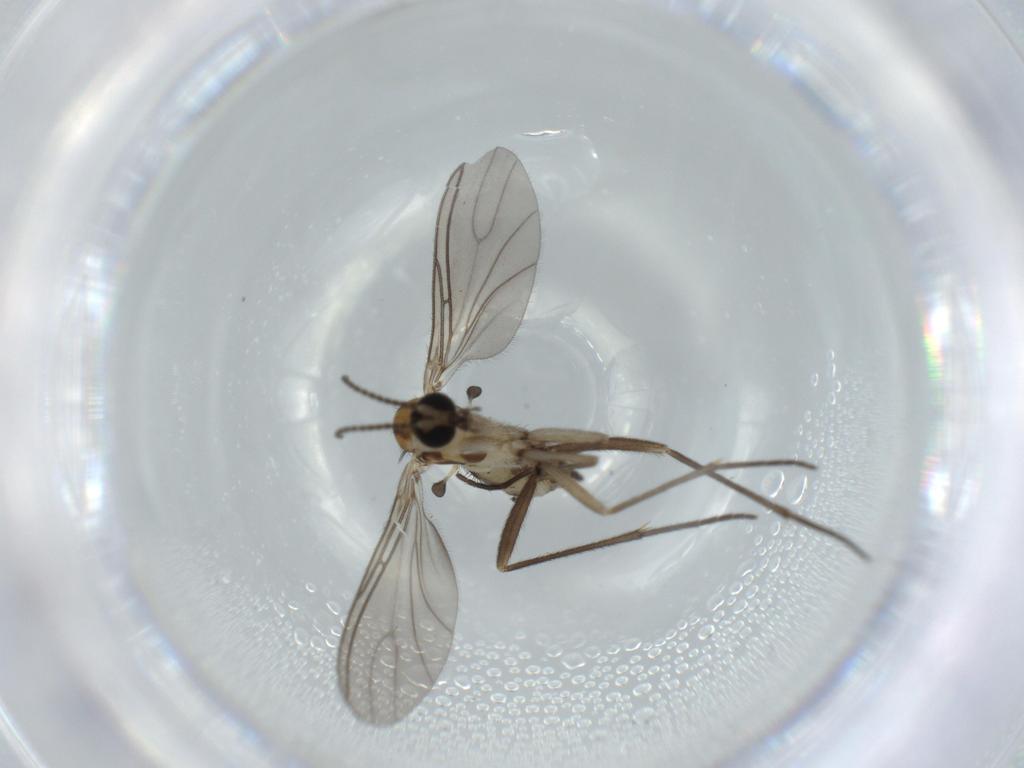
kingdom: Animalia
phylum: Arthropoda
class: Insecta
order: Diptera
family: Sciaridae
